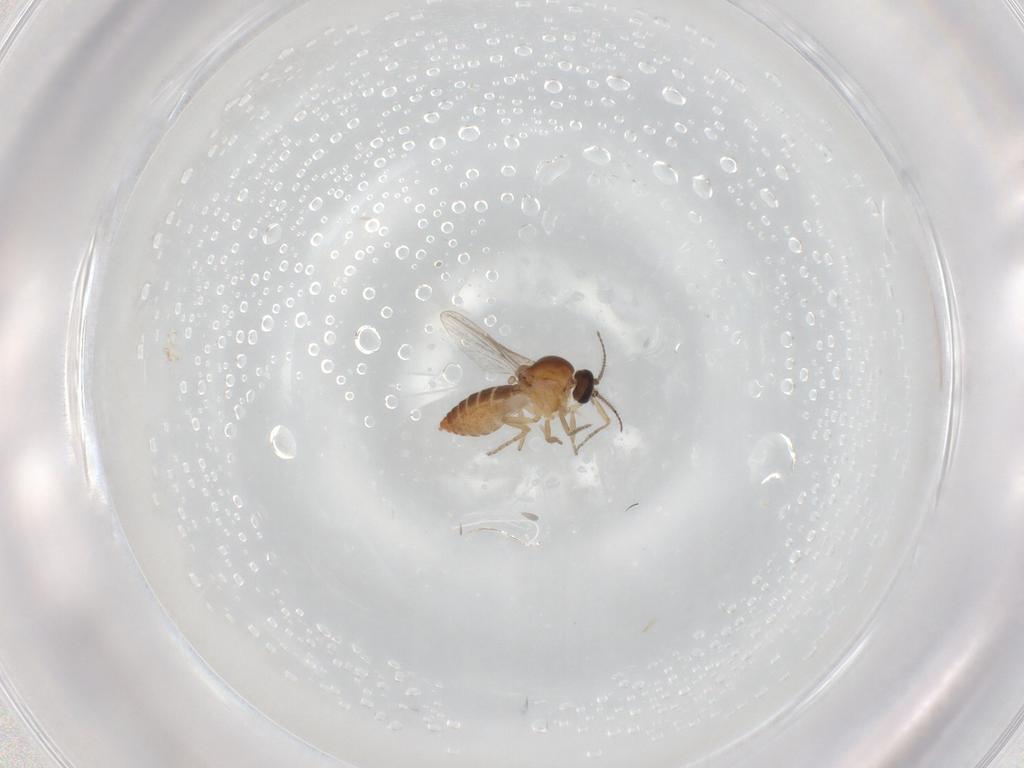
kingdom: Animalia
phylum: Arthropoda
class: Insecta
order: Diptera
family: Ceratopogonidae
